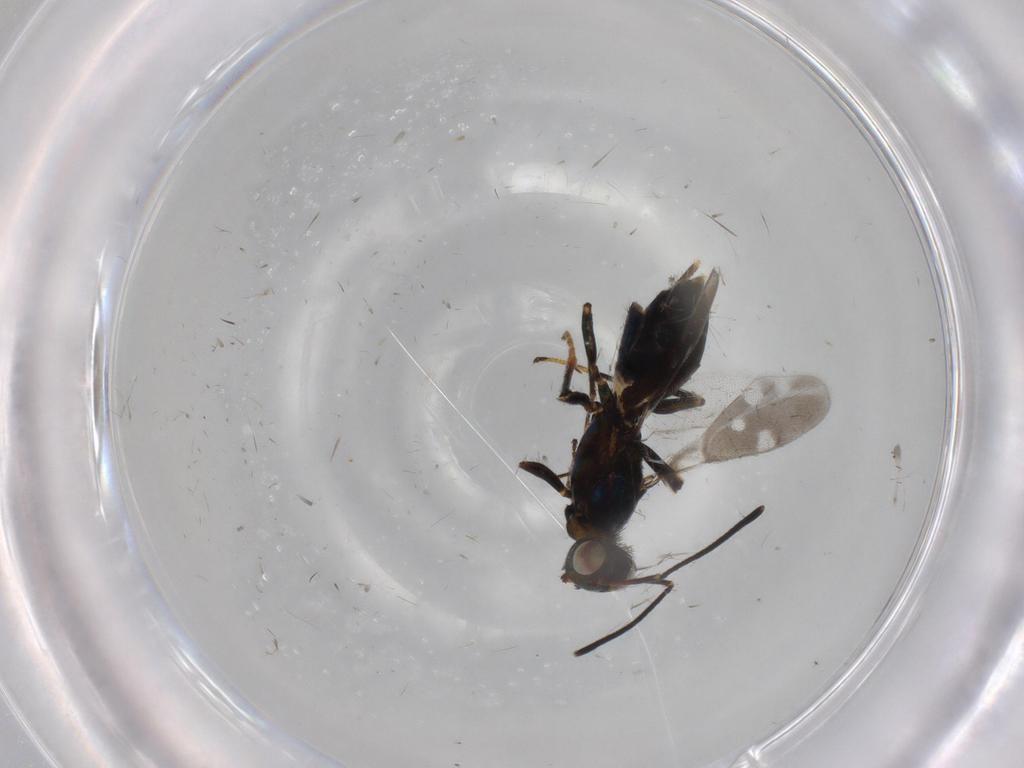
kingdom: Animalia
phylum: Arthropoda
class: Insecta
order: Hymenoptera
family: Eupelmidae
